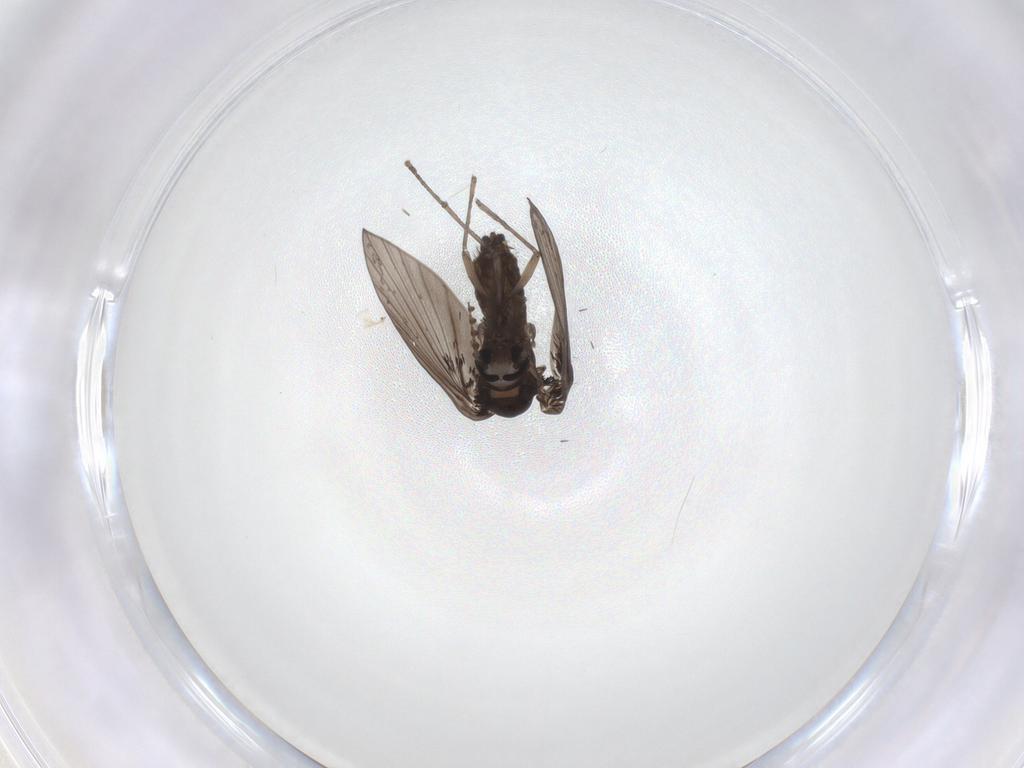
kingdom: Animalia
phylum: Arthropoda
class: Insecta
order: Diptera
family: Hybotidae
